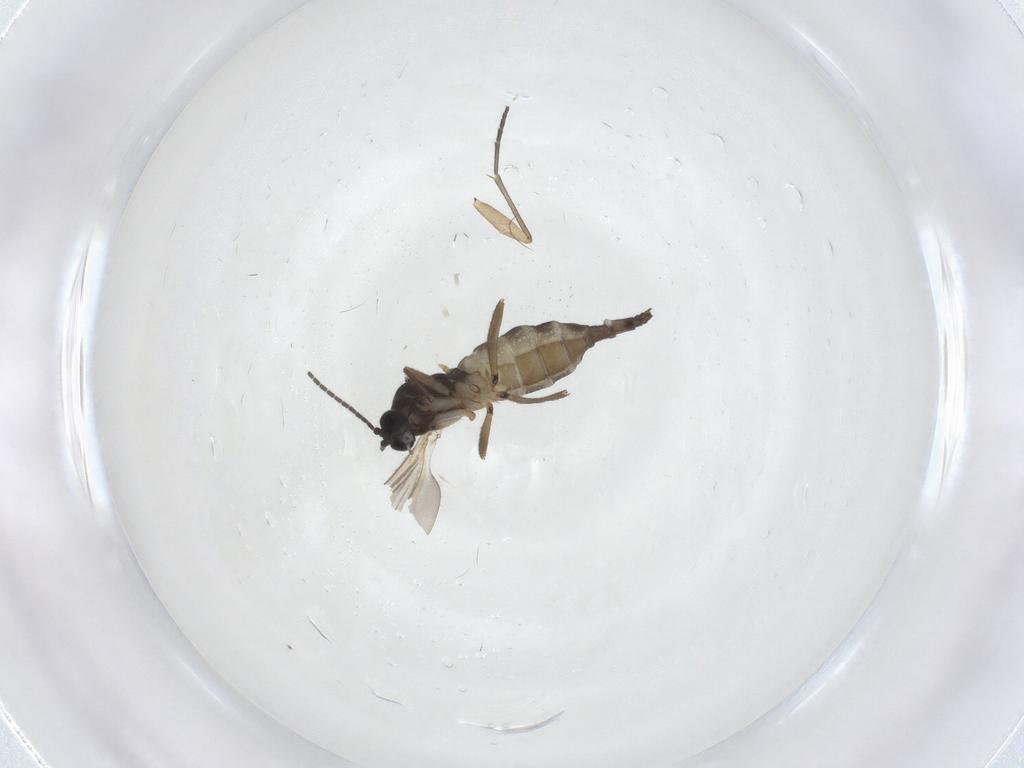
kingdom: Animalia
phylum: Arthropoda
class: Insecta
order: Diptera
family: Sciaridae
